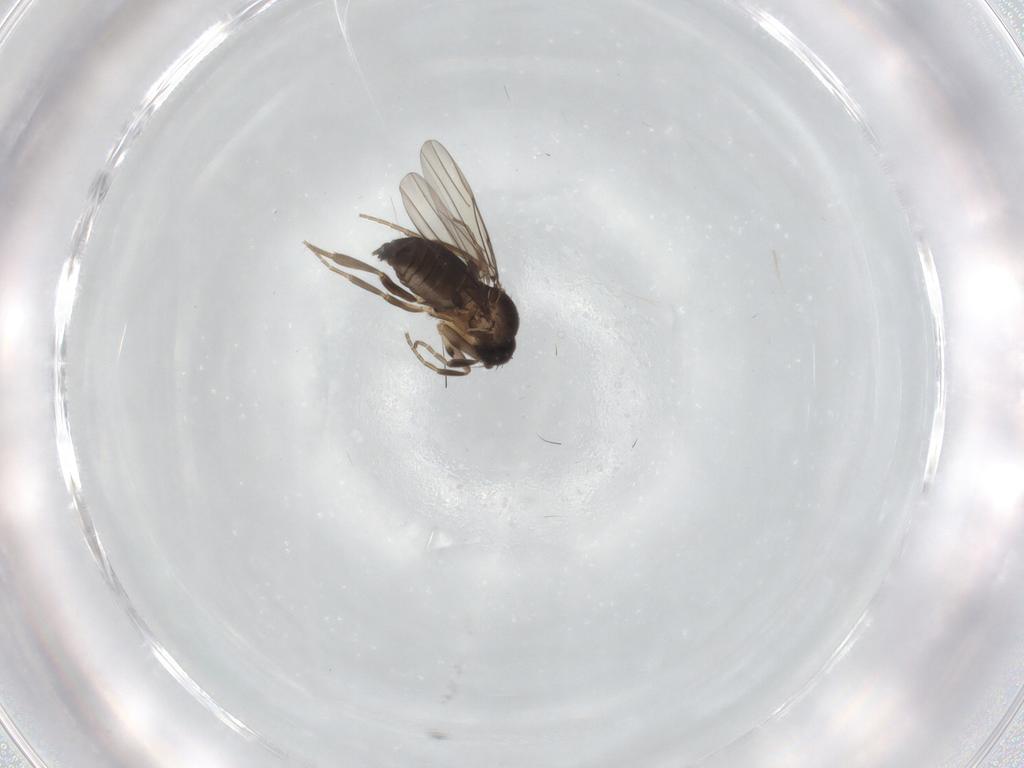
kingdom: Animalia
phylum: Arthropoda
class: Insecta
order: Diptera
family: Phoridae
